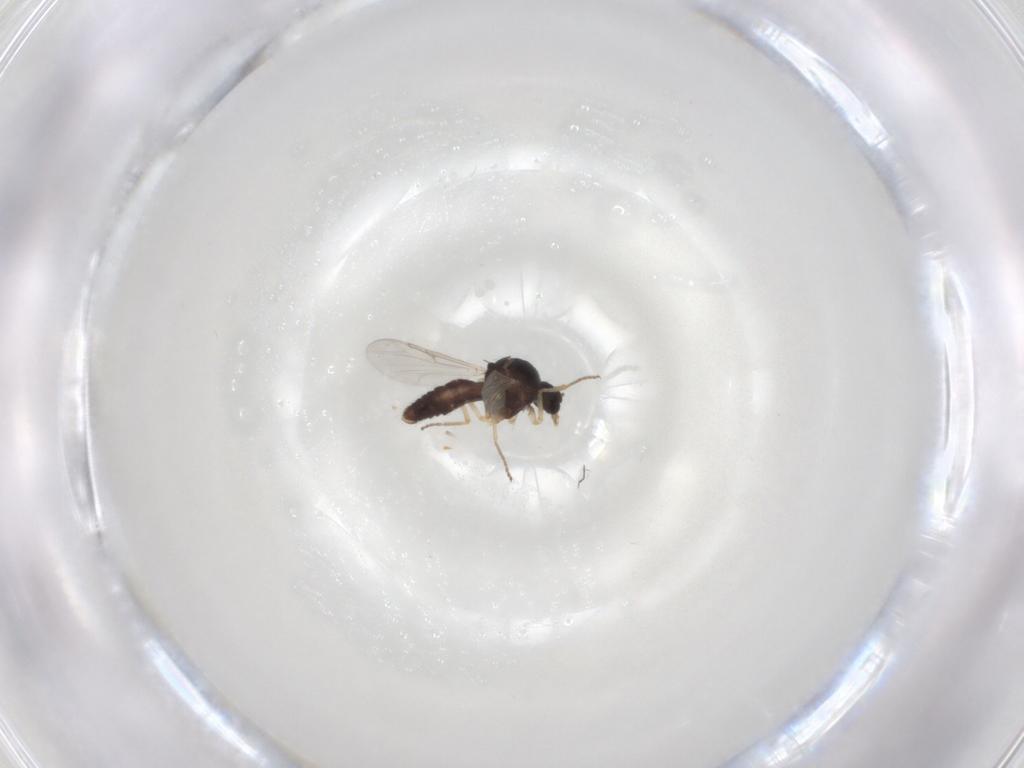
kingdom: Animalia
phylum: Arthropoda
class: Insecta
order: Diptera
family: Ceratopogonidae
